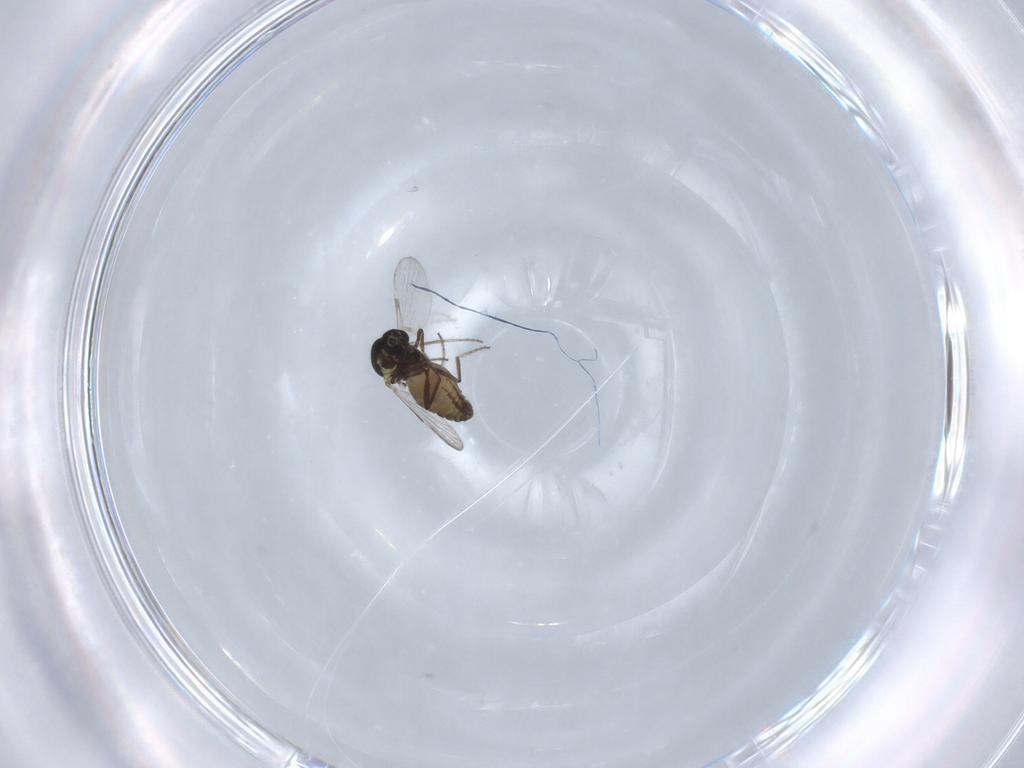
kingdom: Animalia
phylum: Arthropoda
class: Insecta
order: Diptera
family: Ceratopogonidae
